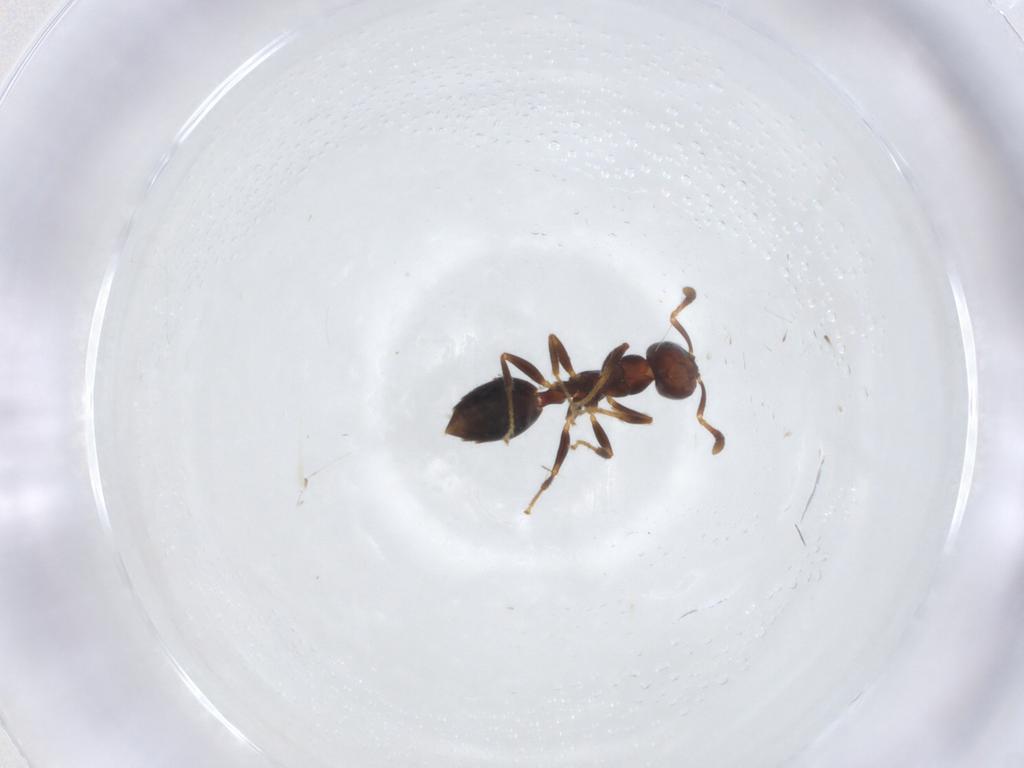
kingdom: Animalia
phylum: Arthropoda
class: Insecta
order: Hymenoptera
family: Formicidae
